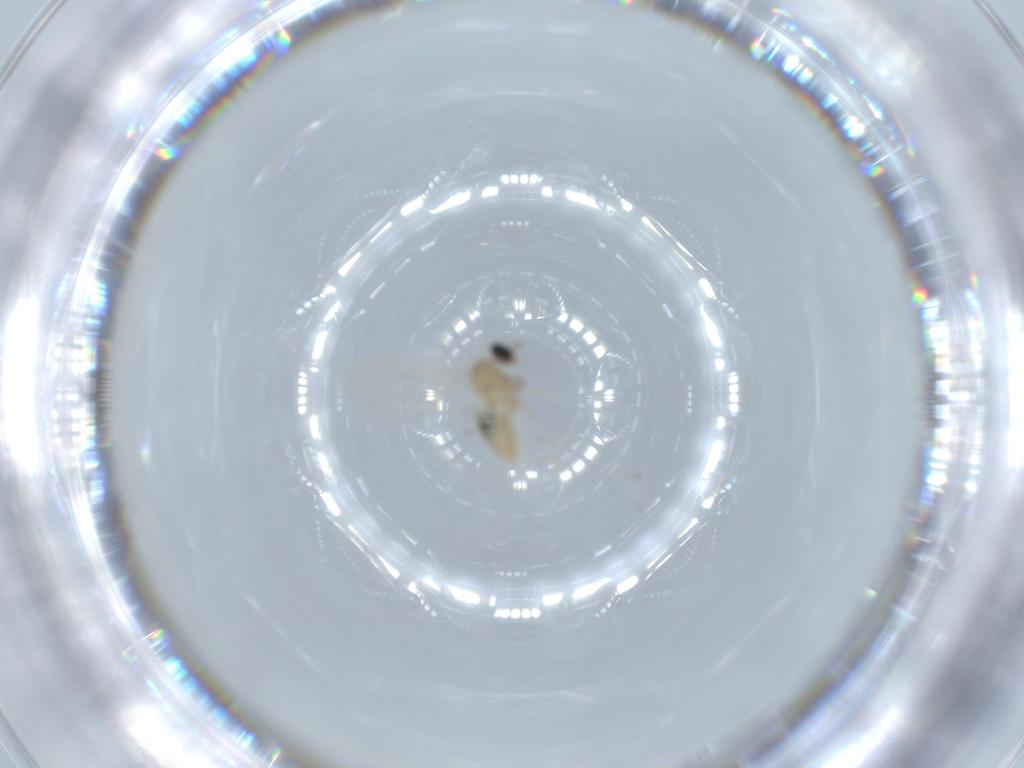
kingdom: Animalia
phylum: Arthropoda
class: Insecta
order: Diptera
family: Cecidomyiidae
